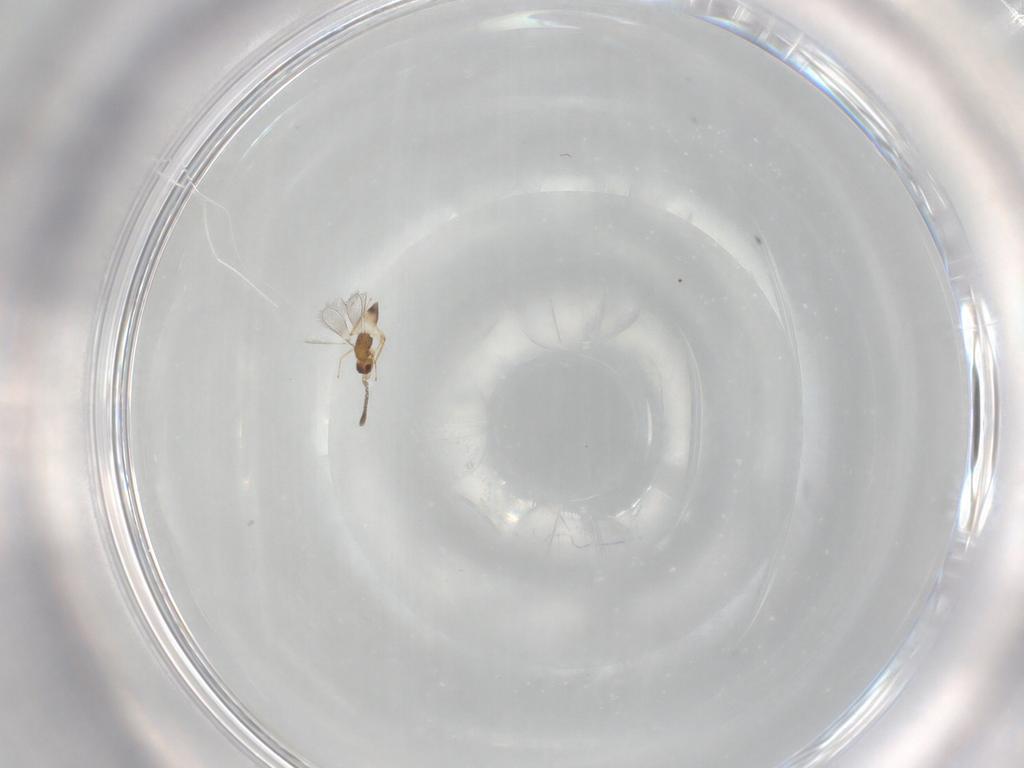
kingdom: Animalia
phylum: Arthropoda
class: Insecta
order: Hymenoptera
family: Mymaridae
